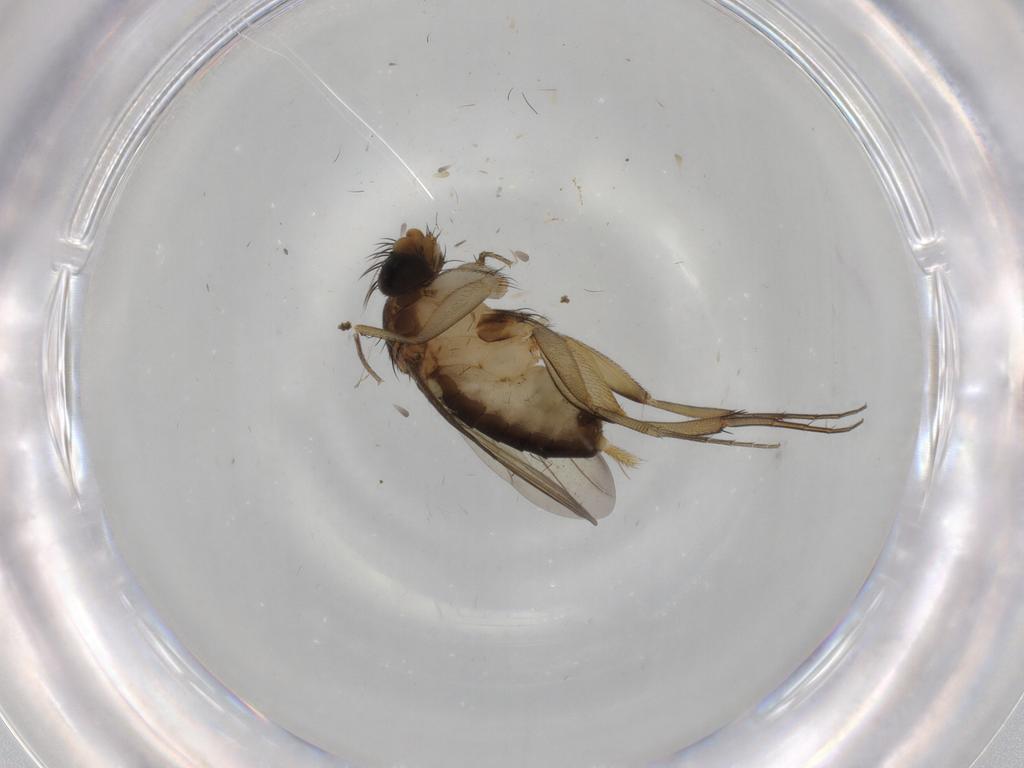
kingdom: Animalia
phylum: Arthropoda
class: Insecta
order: Diptera
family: Phoridae
